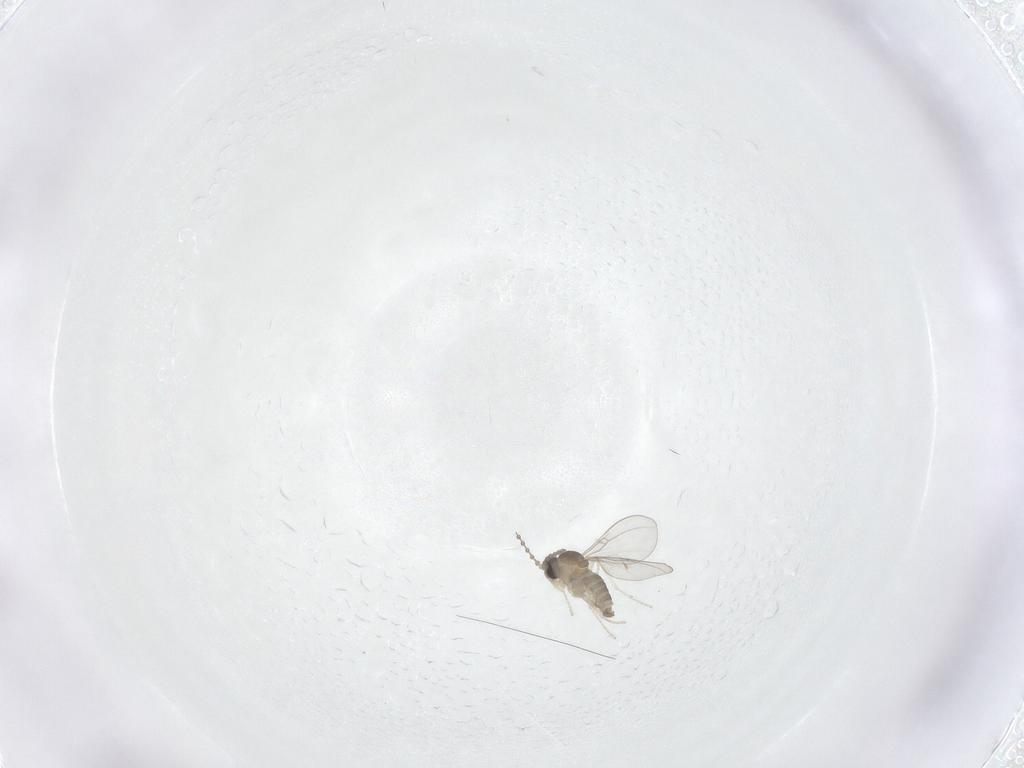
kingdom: Animalia
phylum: Arthropoda
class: Insecta
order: Diptera
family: Cecidomyiidae
